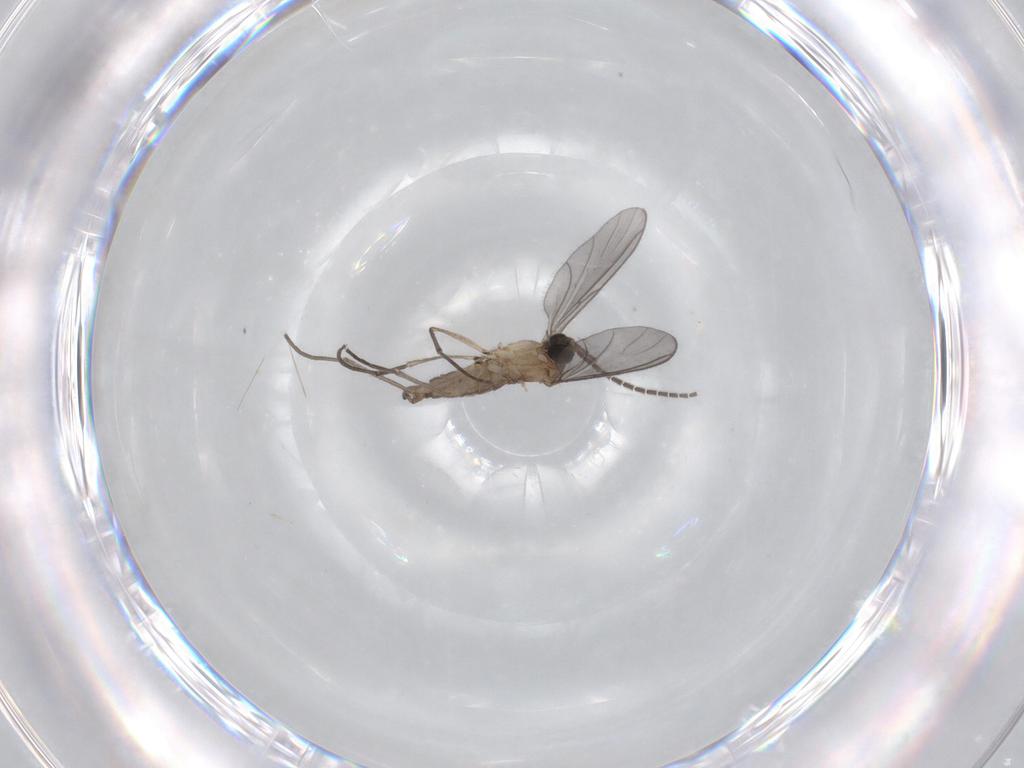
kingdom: Animalia
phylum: Arthropoda
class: Insecta
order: Diptera
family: Sciaridae
